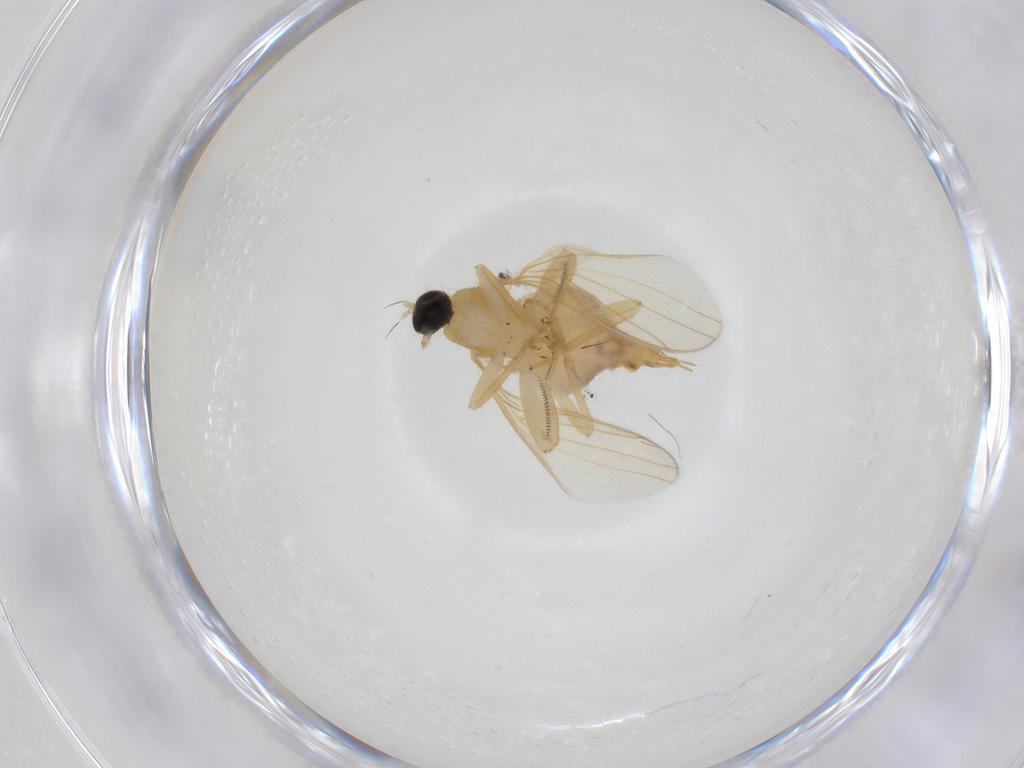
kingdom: Animalia
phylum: Arthropoda
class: Insecta
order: Diptera
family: Hybotidae
